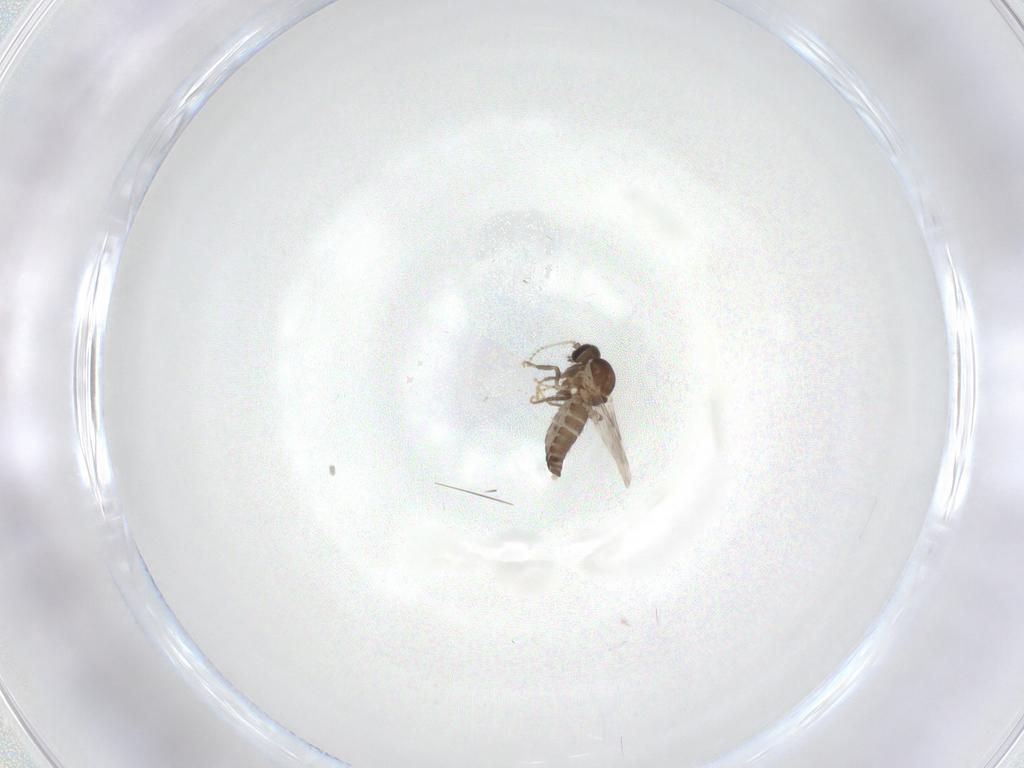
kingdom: Animalia
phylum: Arthropoda
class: Insecta
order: Diptera
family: Ceratopogonidae
